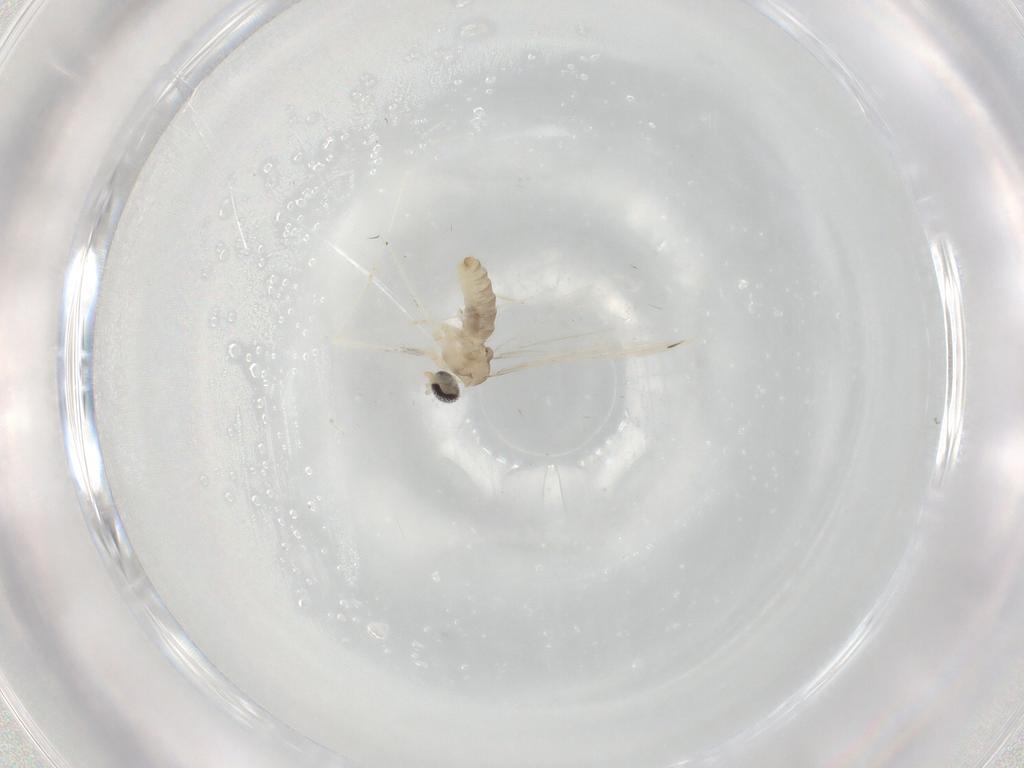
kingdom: Animalia
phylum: Arthropoda
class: Insecta
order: Diptera
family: Cecidomyiidae
